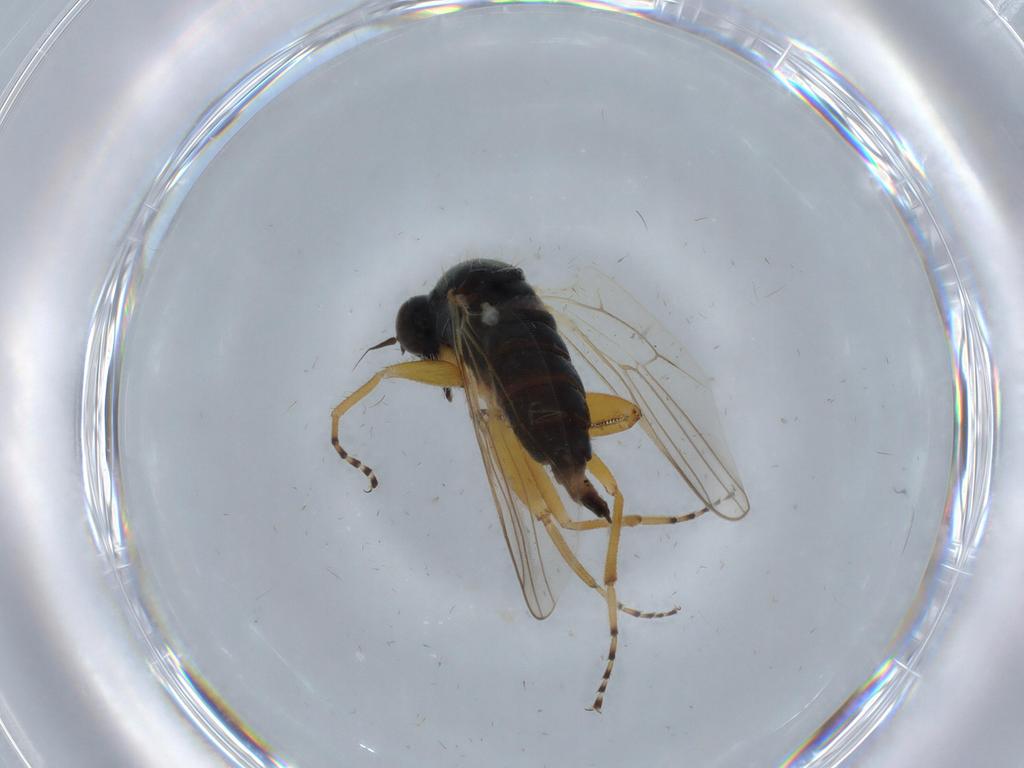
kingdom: Animalia
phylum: Arthropoda
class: Insecta
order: Diptera
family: Hybotidae
